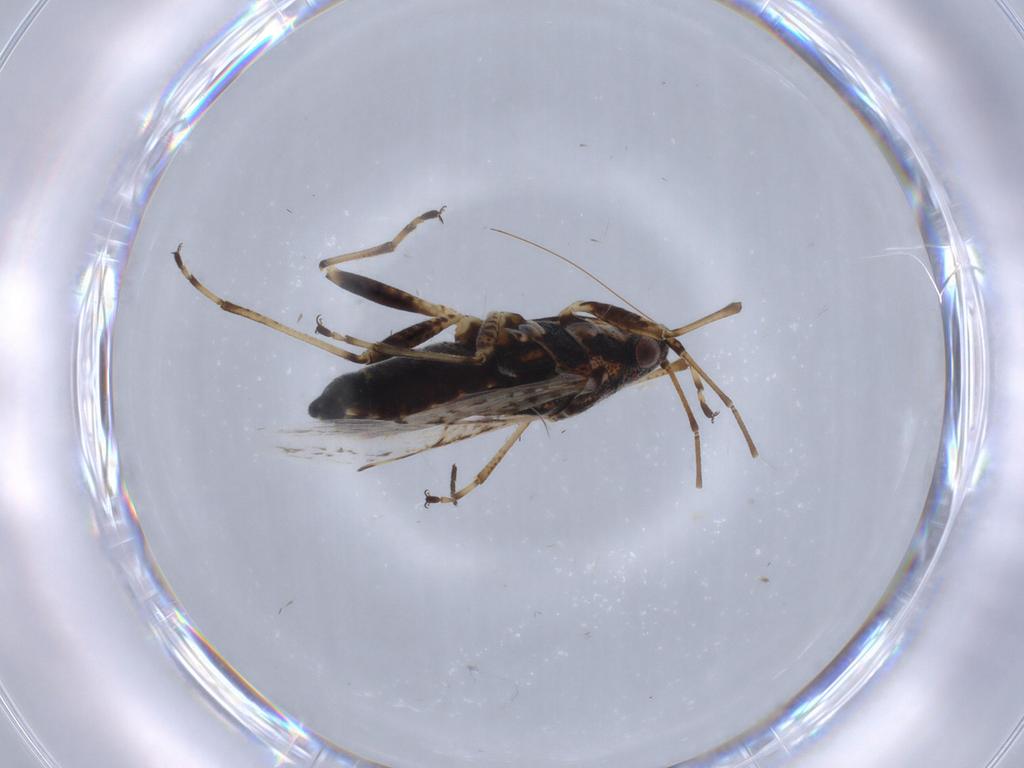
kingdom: Animalia
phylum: Arthropoda
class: Insecta
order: Hemiptera
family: Lygaeidae
